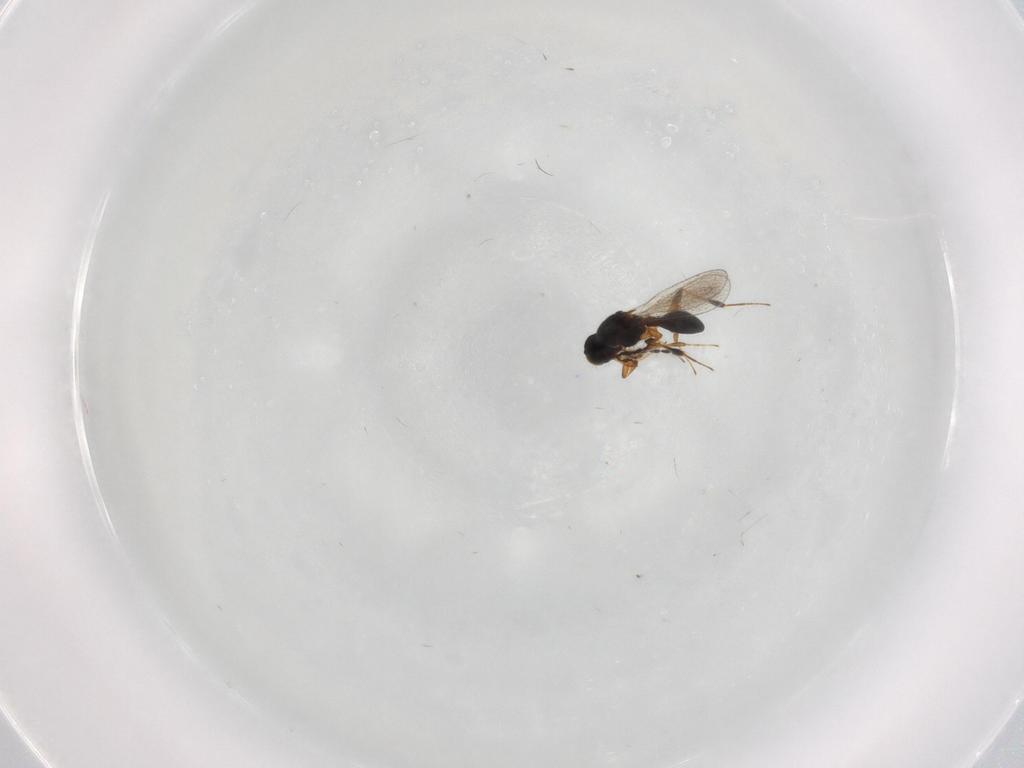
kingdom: Animalia
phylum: Arthropoda
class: Insecta
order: Hymenoptera
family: Platygastridae
